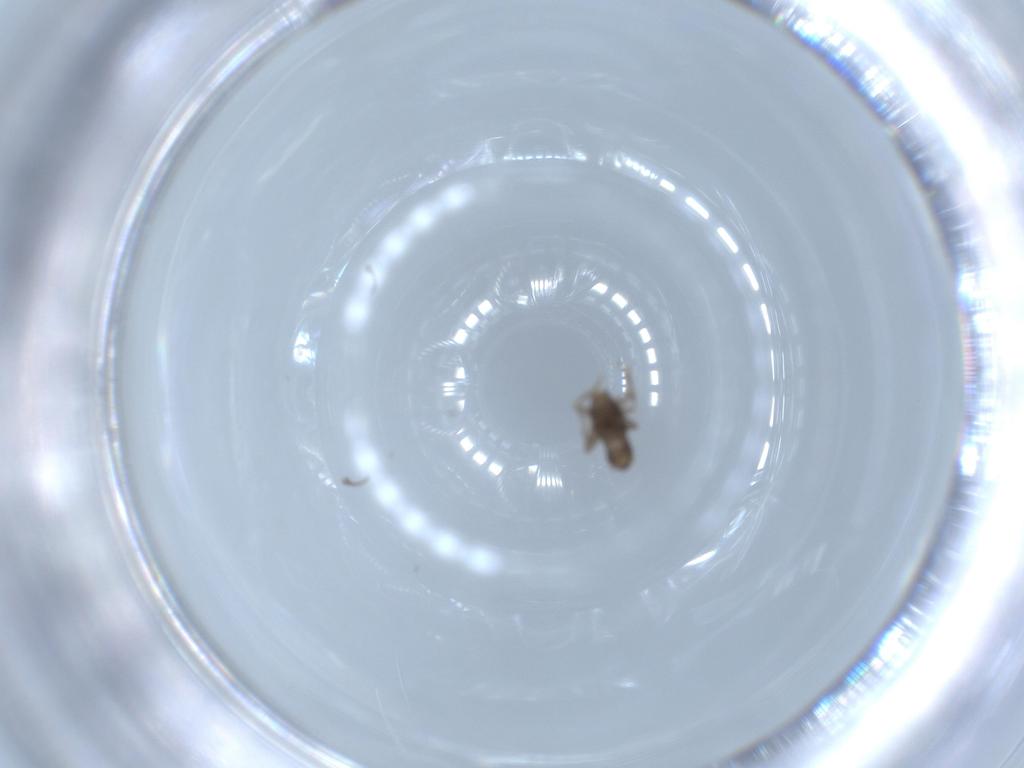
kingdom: Animalia
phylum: Arthropoda
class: Insecta
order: Diptera
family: Phoridae
